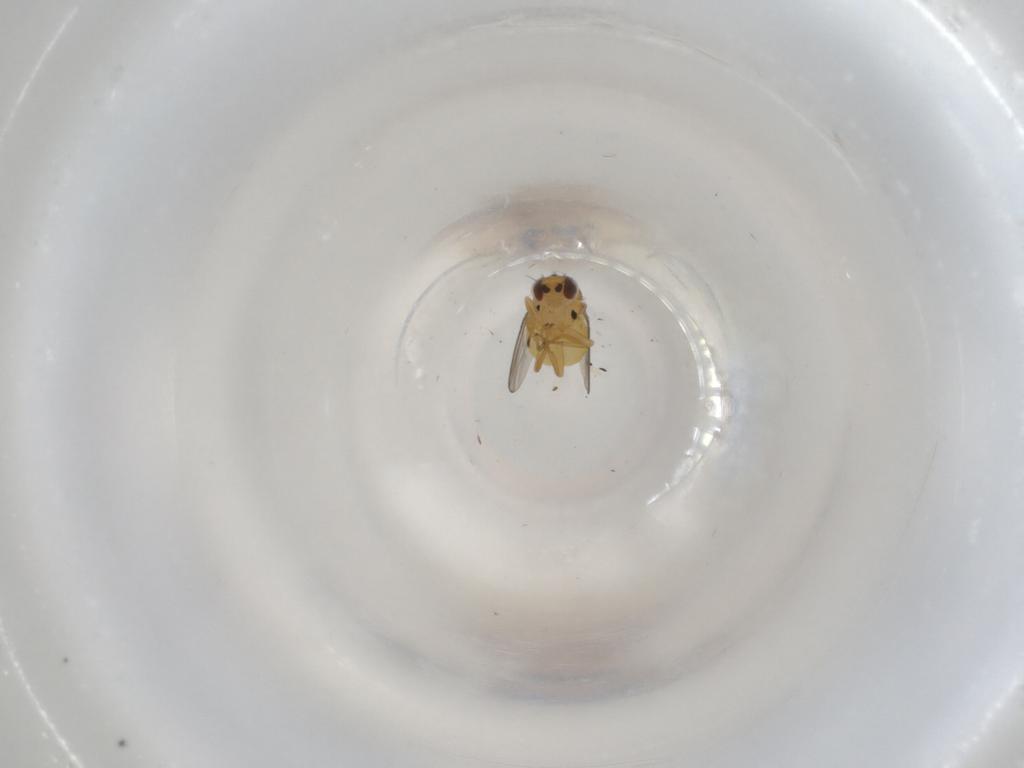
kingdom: Animalia
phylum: Arthropoda
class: Insecta
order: Diptera
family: Chloropidae
